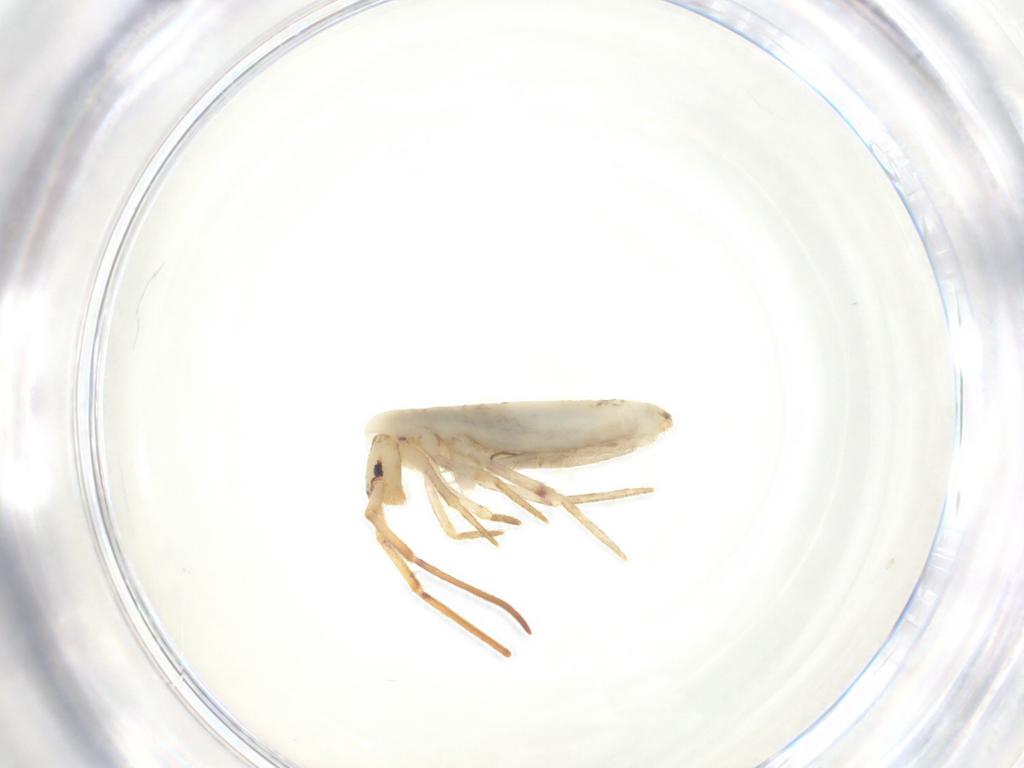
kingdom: Animalia
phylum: Arthropoda
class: Collembola
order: Poduromorpha
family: Hypogastruridae
